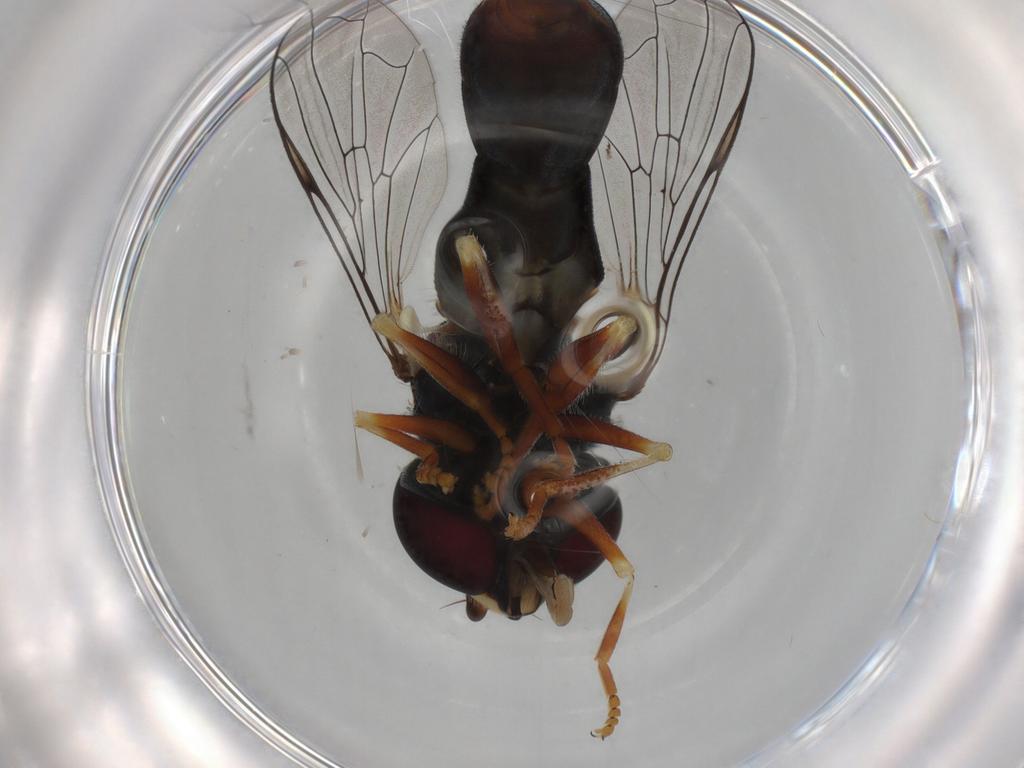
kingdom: Animalia
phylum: Arthropoda
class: Insecta
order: Diptera
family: Syrphidae
